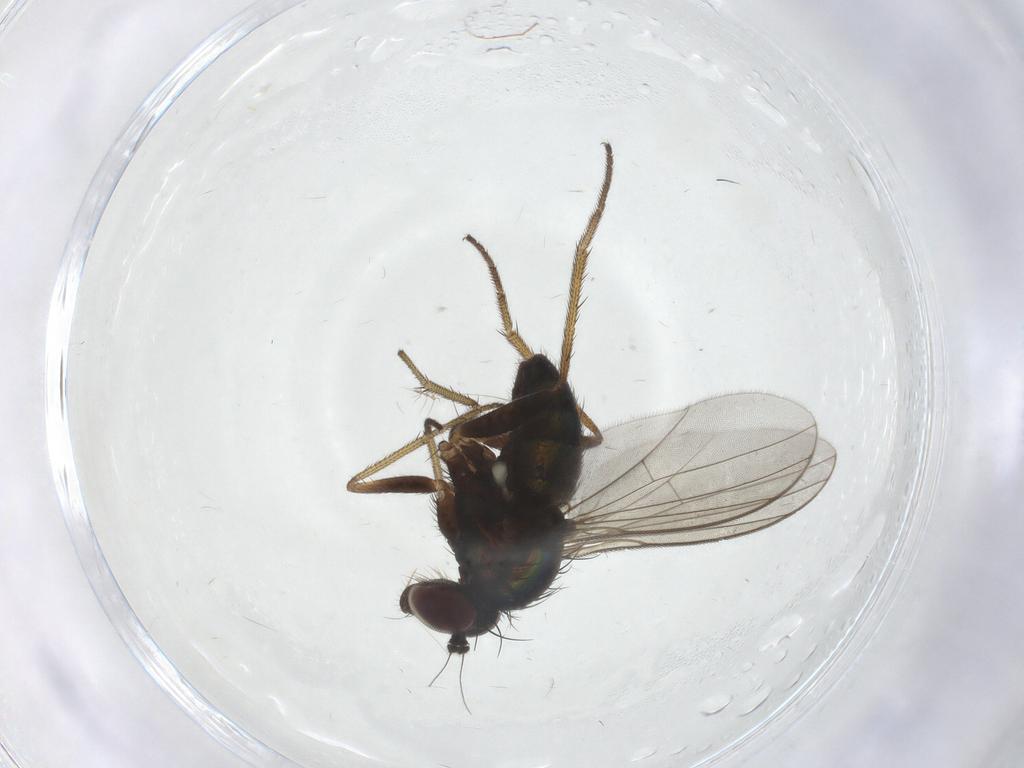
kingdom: Animalia
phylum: Arthropoda
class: Insecta
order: Diptera
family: Dolichopodidae
